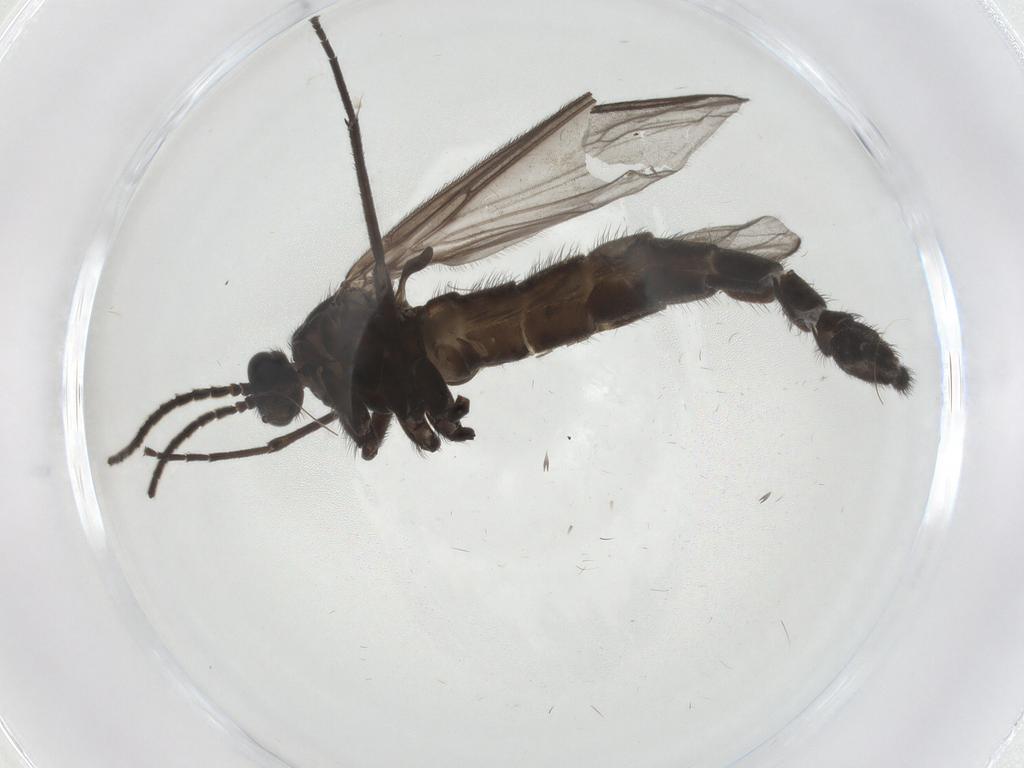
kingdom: Animalia
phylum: Arthropoda
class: Insecta
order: Diptera
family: Chironomidae
